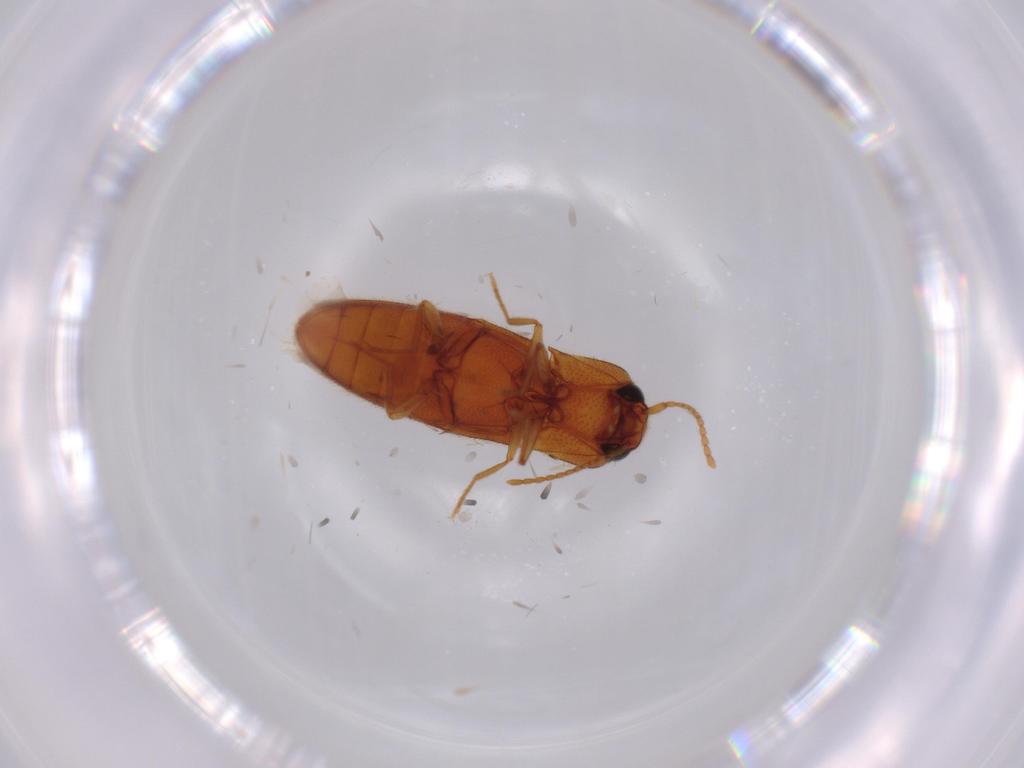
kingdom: Animalia
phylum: Arthropoda
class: Insecta
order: Coleoptera
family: Elateridae
